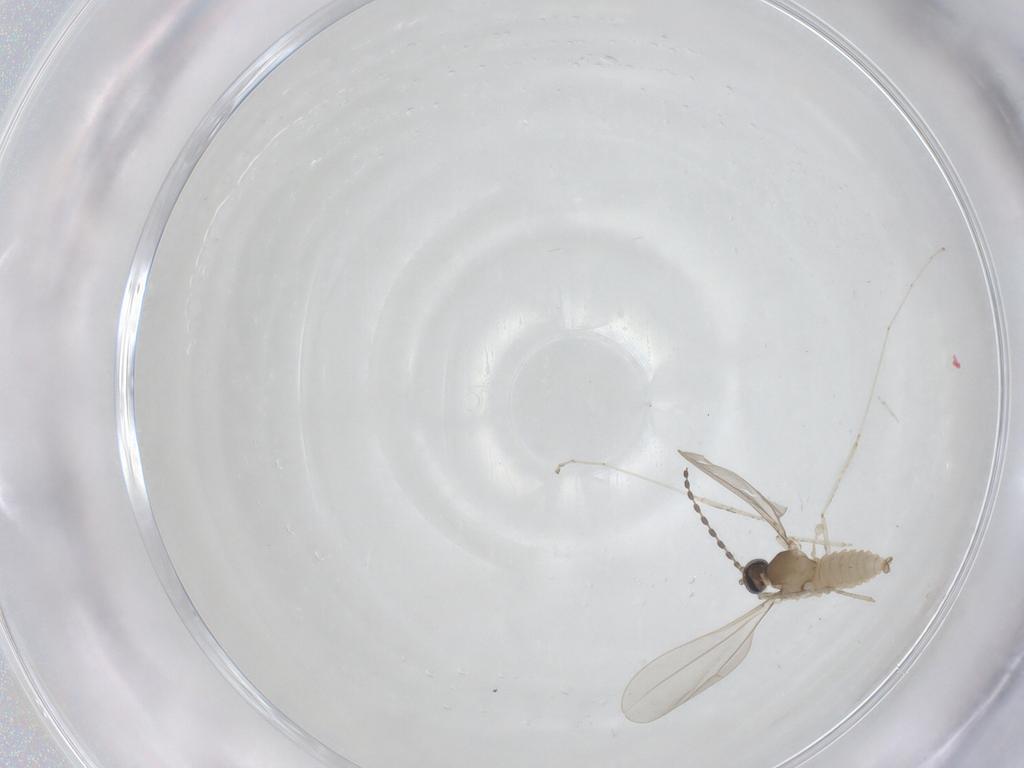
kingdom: Animalia
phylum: Arthropoda
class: Insecta
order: Diptera
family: Cecidomyiidae
